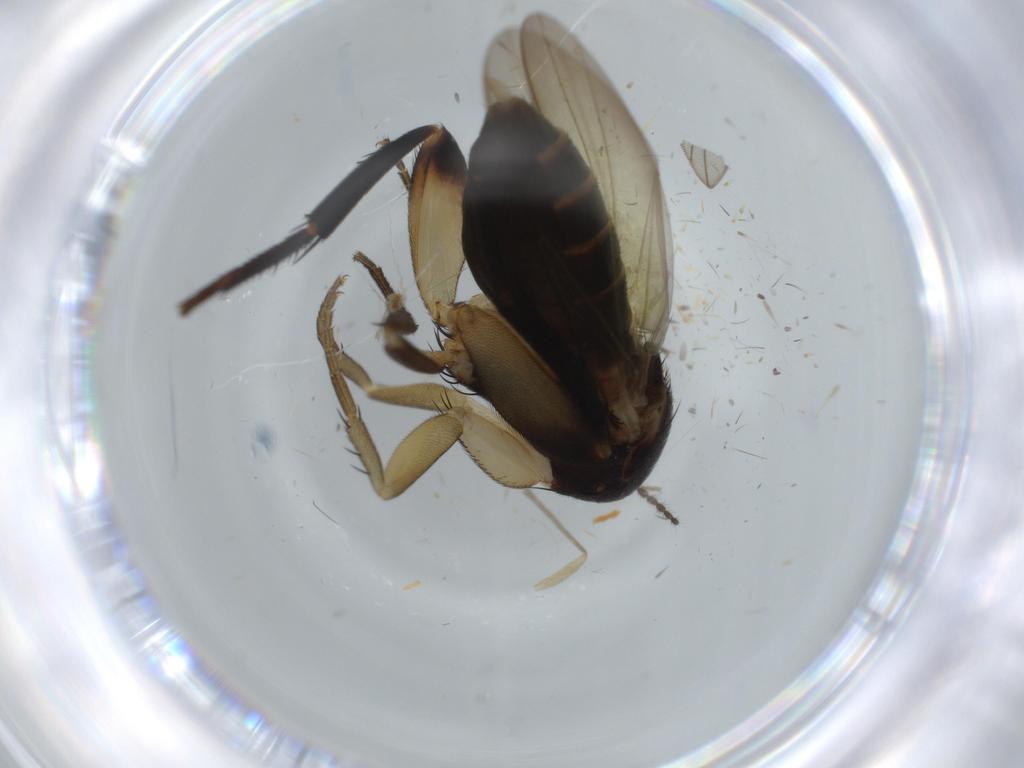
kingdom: Animalia
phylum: Arthropoda
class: Insecta
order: Diptera
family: Phoridae
